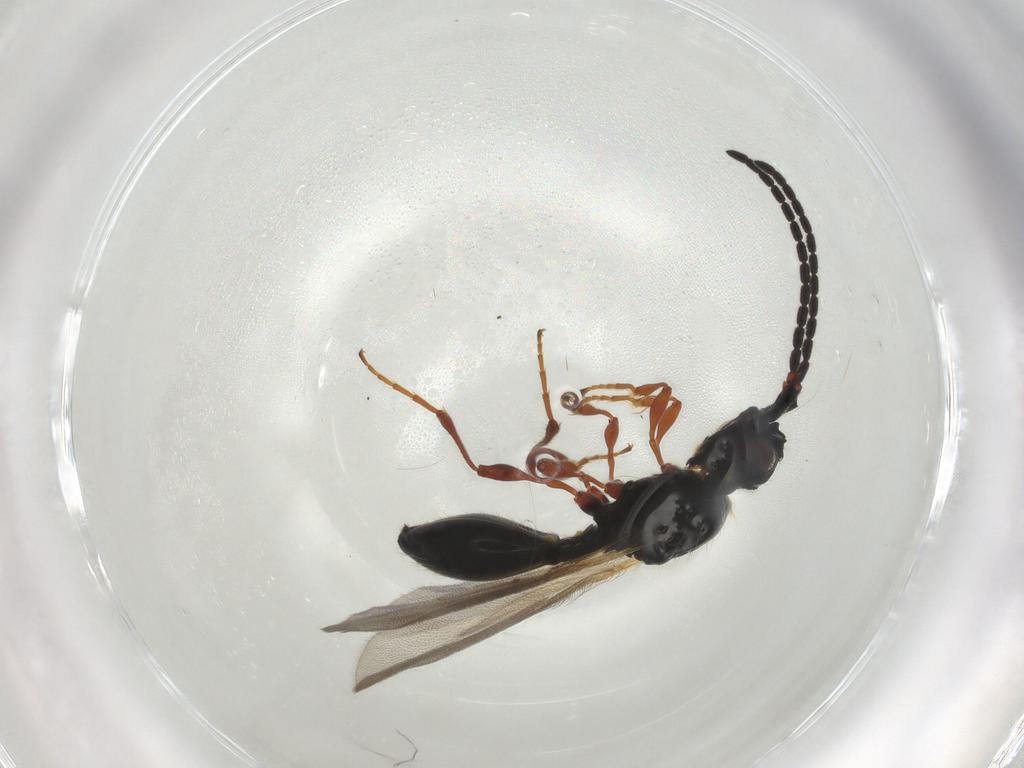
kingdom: Animalia
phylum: Arthropoda
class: Insecta
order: Hymenoptera
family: Diapriidae
